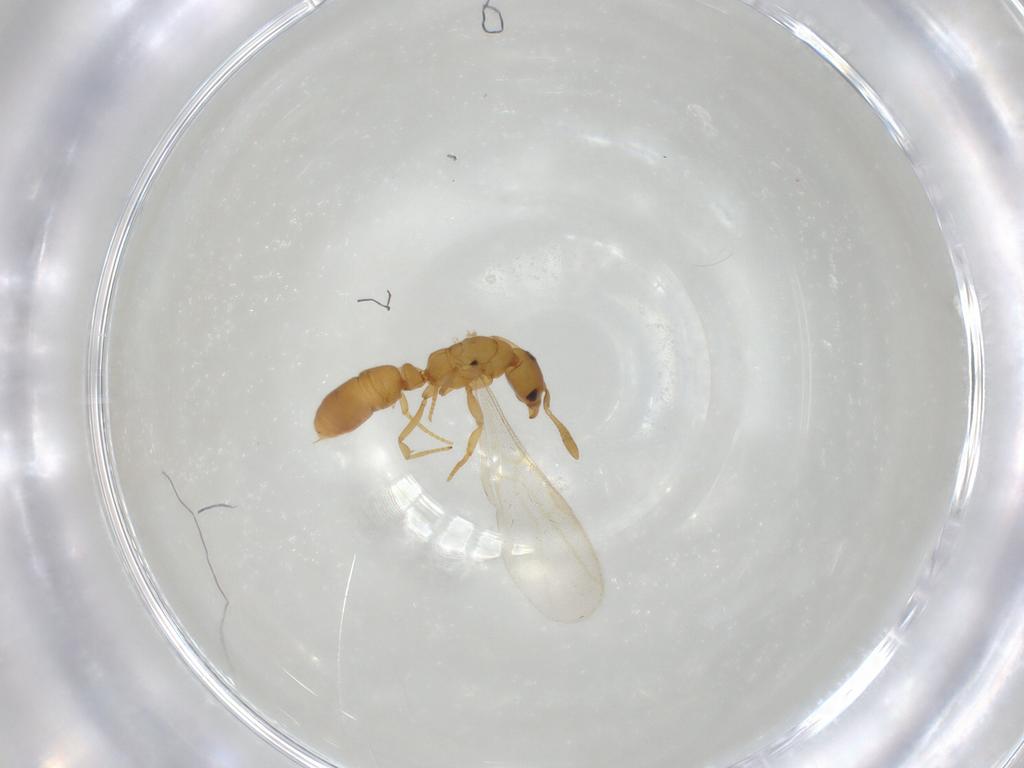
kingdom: Animalia
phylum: Arthropoda
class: Insecta
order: Hymenoptera
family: Formicidae
